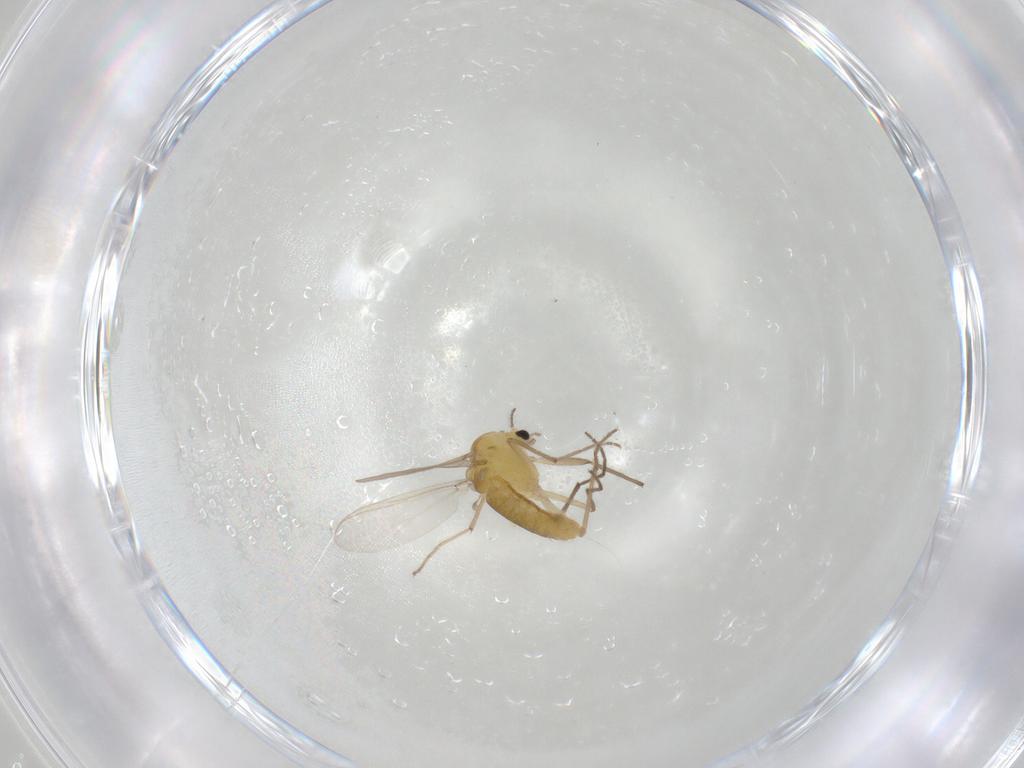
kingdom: Animalia
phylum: Arthropoda
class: Insecta
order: Diptera
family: Chironomidae
